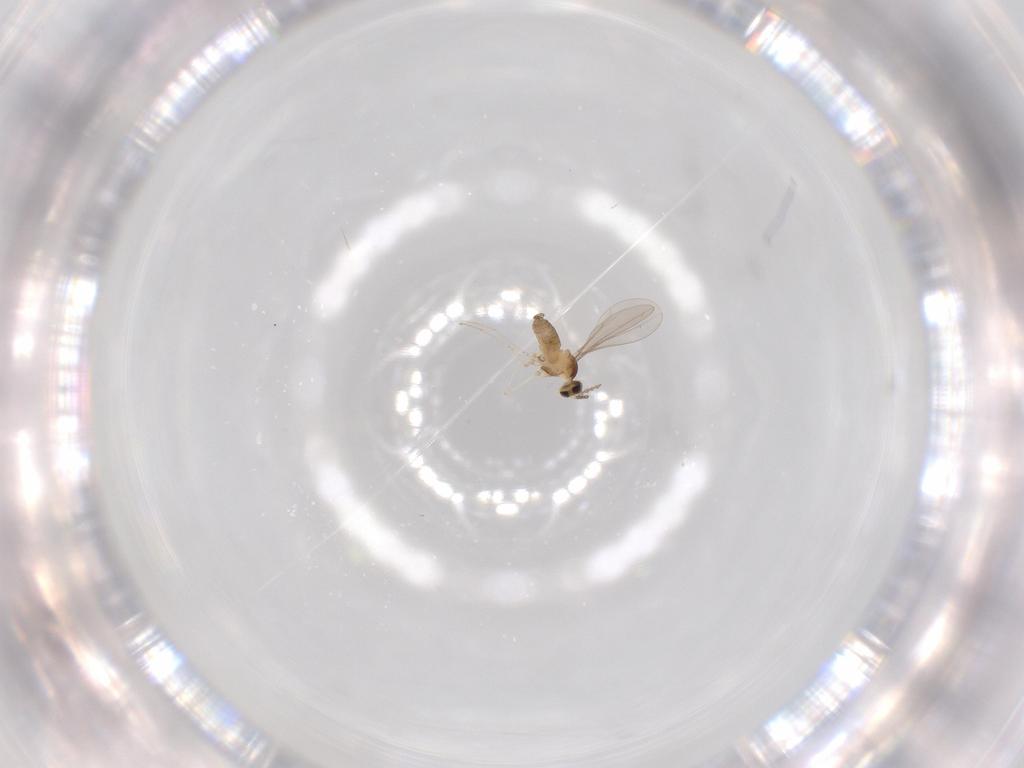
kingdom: Animalia
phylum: Arthropoda
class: Insecta
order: Diptera
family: Cecidomyiidae
